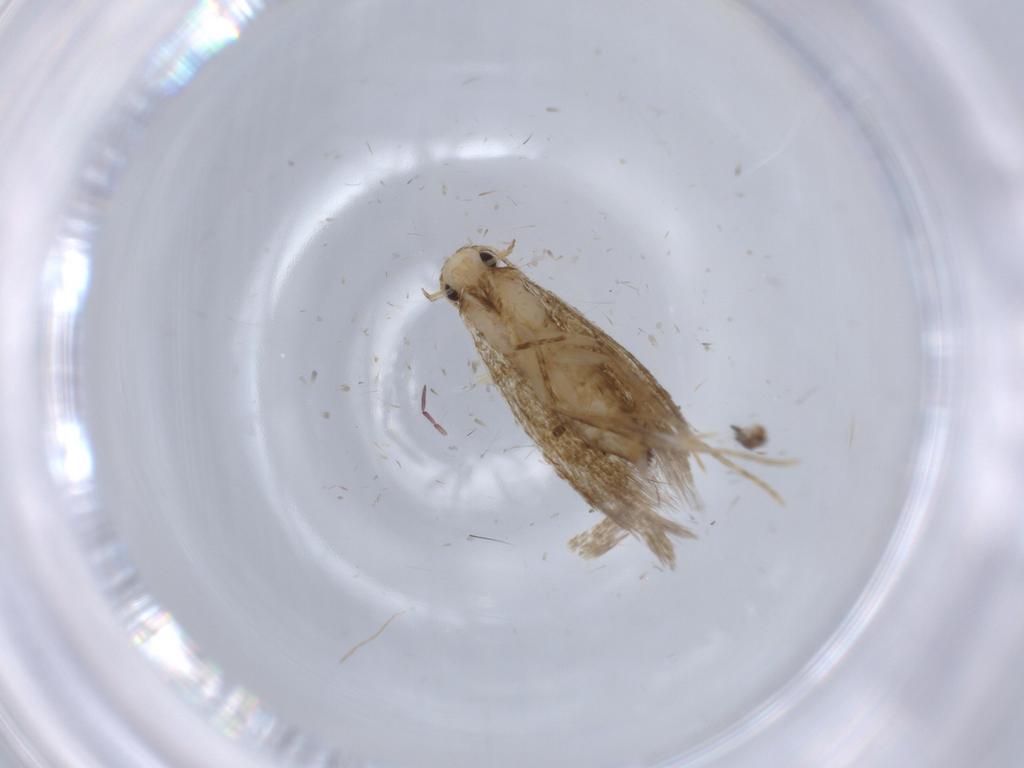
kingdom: Animalia
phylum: Arthropoda
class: Insecta
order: Lepidoptera
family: Tineidae
